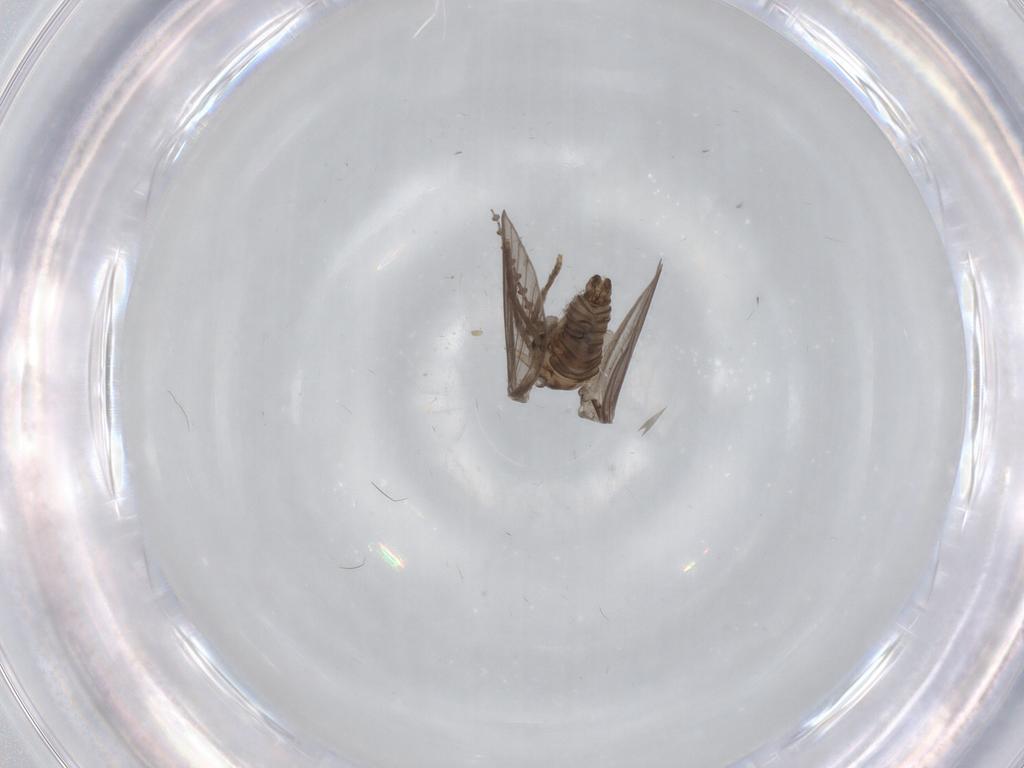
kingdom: Animalia
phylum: Arthropoda
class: Insecta
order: Diptera
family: Psychodidae
